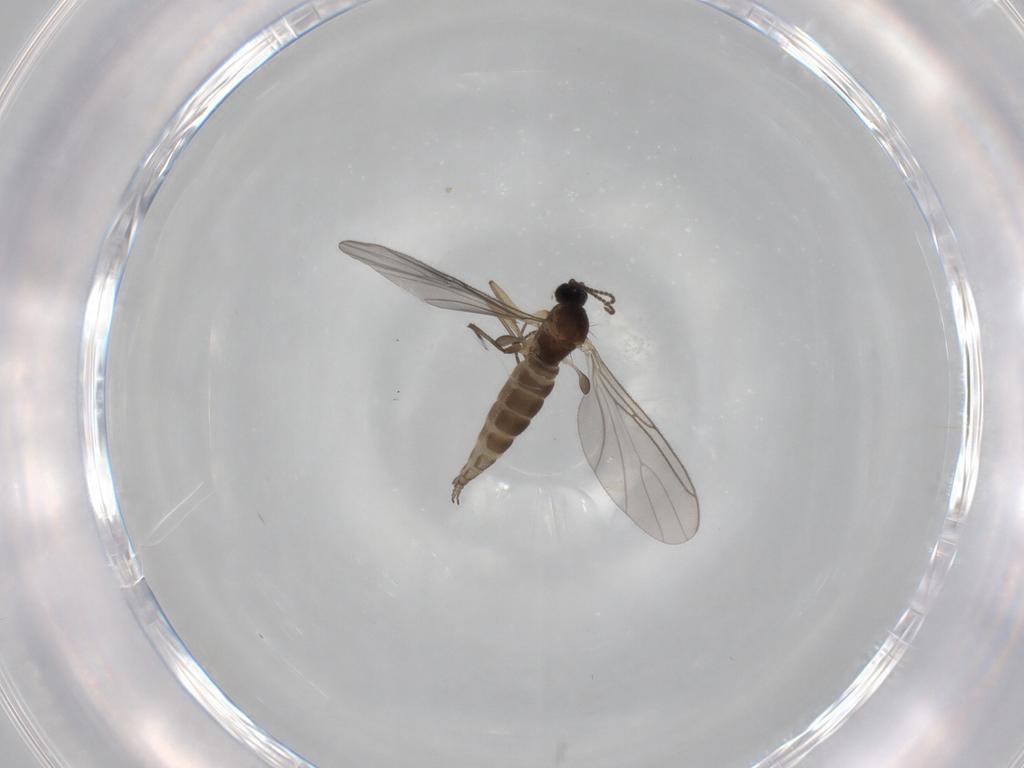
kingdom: Animalia
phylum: Arthropoda
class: Insecta
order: Diptera
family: Sciaridae
